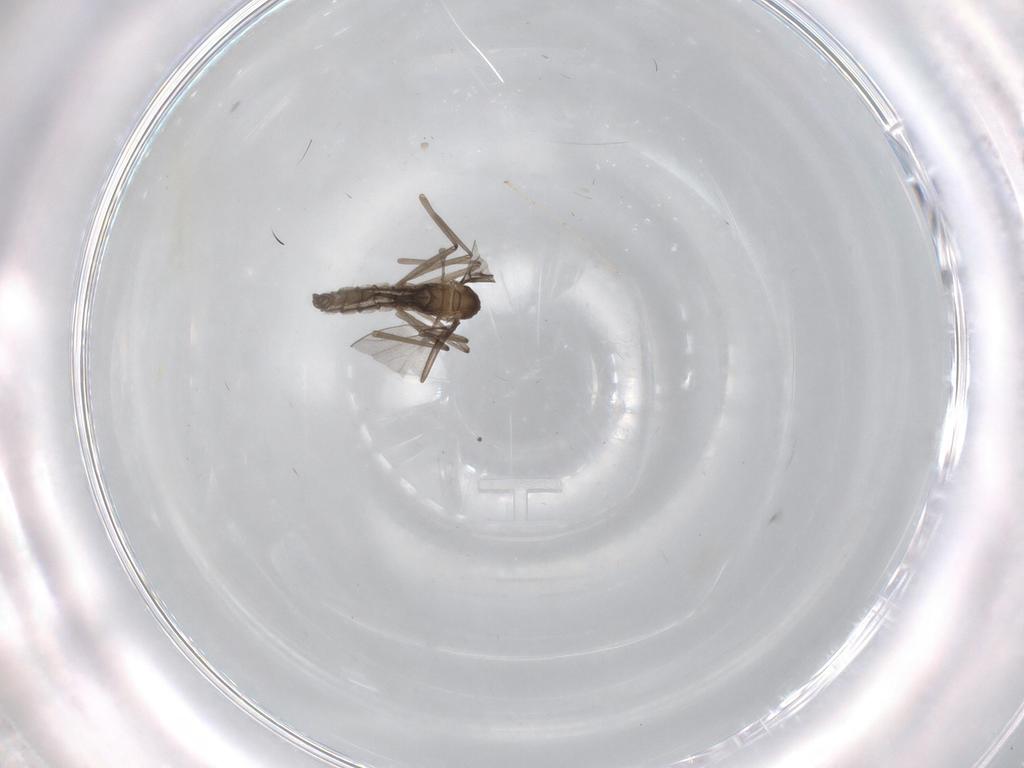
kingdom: Animalia
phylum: Arthropoda
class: Insecta
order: Diptera
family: Cecidomyiidae
